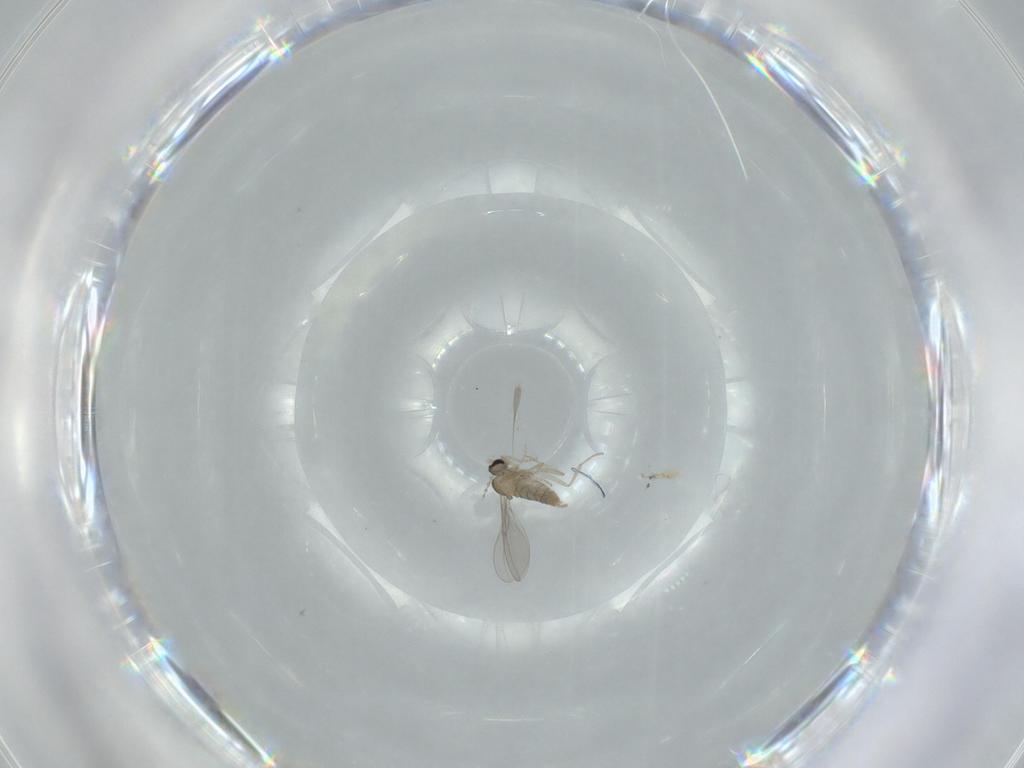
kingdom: Animalia
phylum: Arthropoda
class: Insecta
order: Diptera
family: Cecidomyiidae
